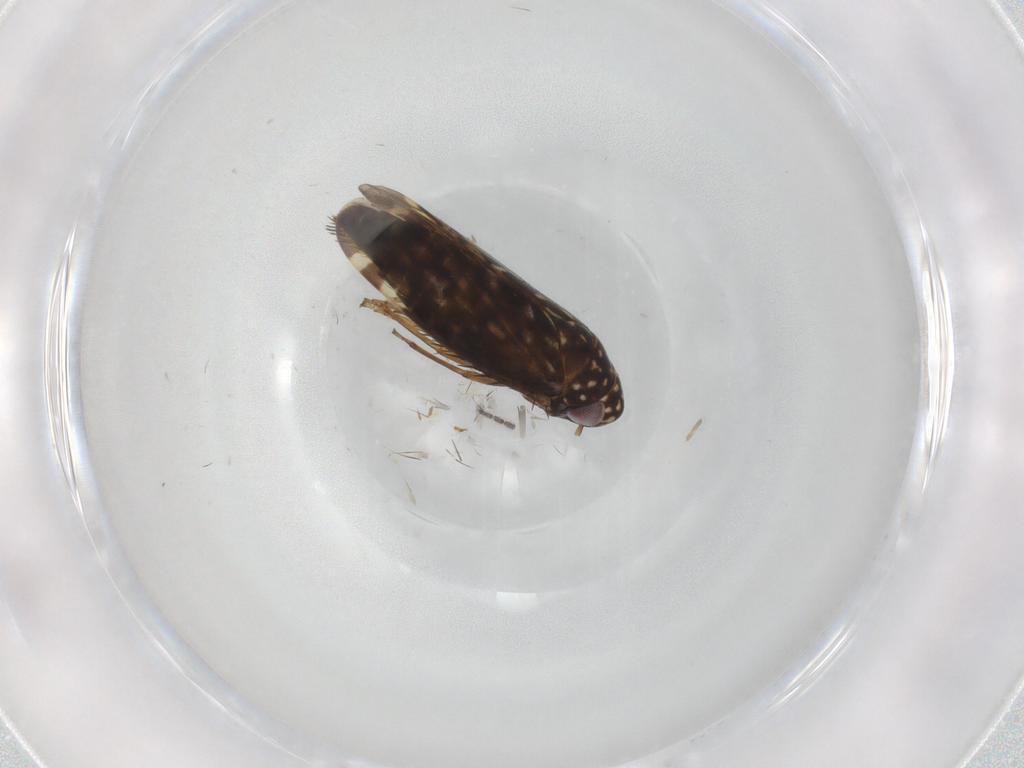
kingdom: Animalia
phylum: Arthropoda
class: Insecta
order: Hemiptera
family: Cicadellidae
